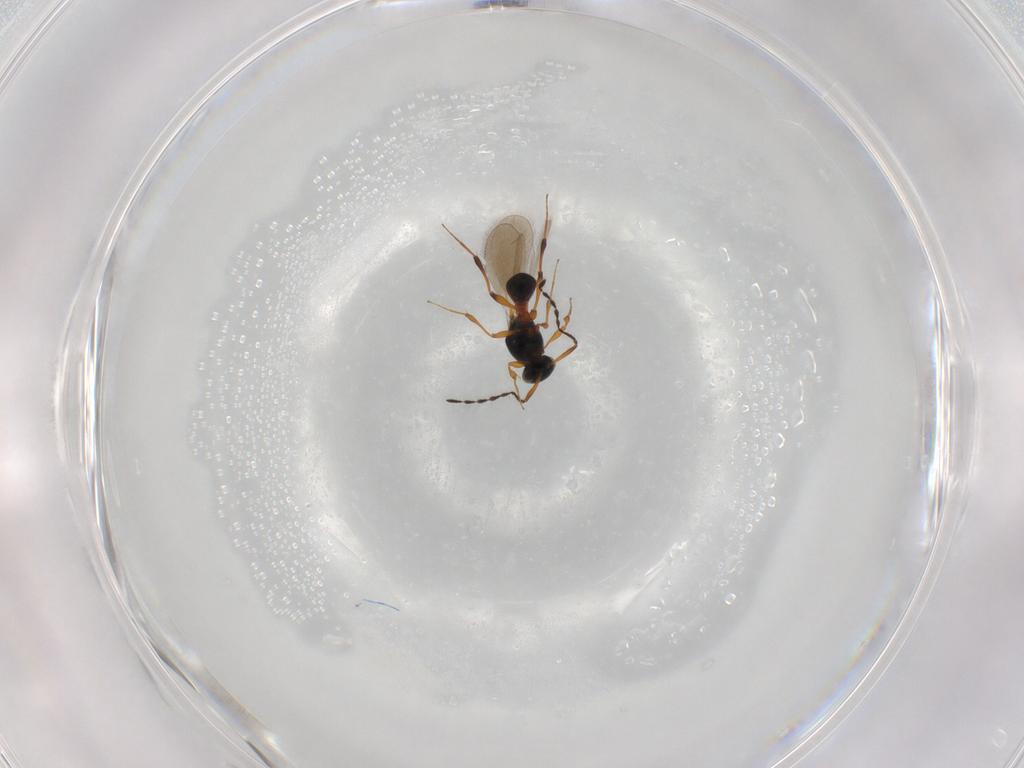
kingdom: Animalia
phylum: Arthropoda
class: Insecta
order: Hymenoptera
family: Platygastridae
